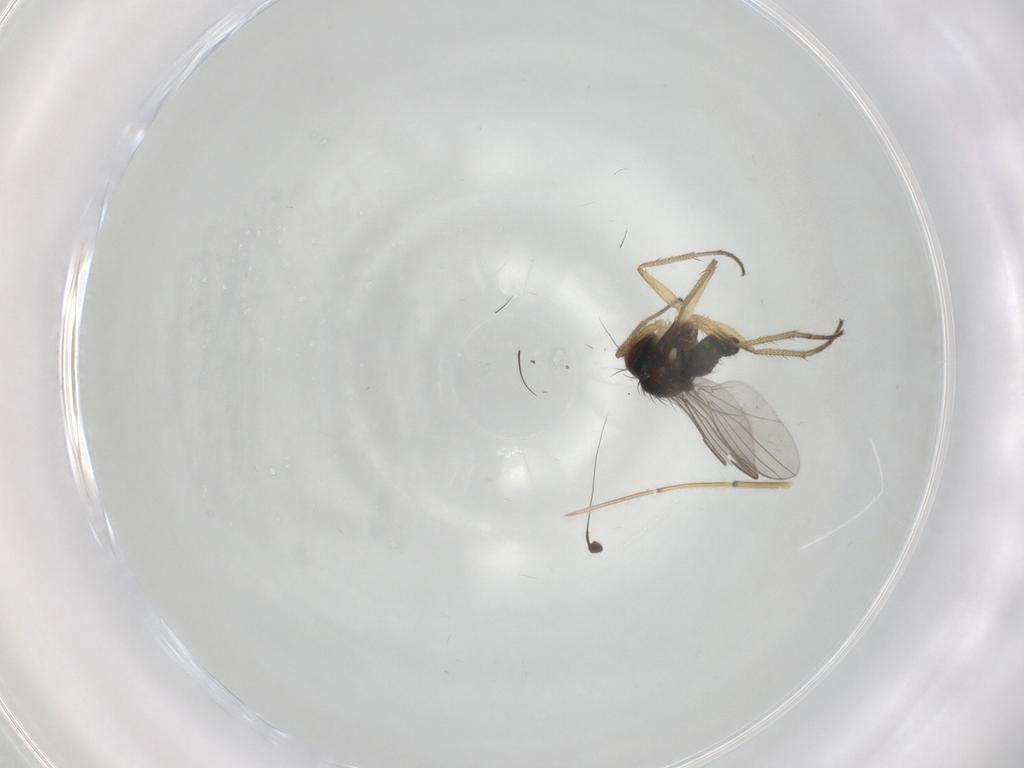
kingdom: Animalia
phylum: Arthropoda
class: Insecta
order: Diptera
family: Dolichopodidae
